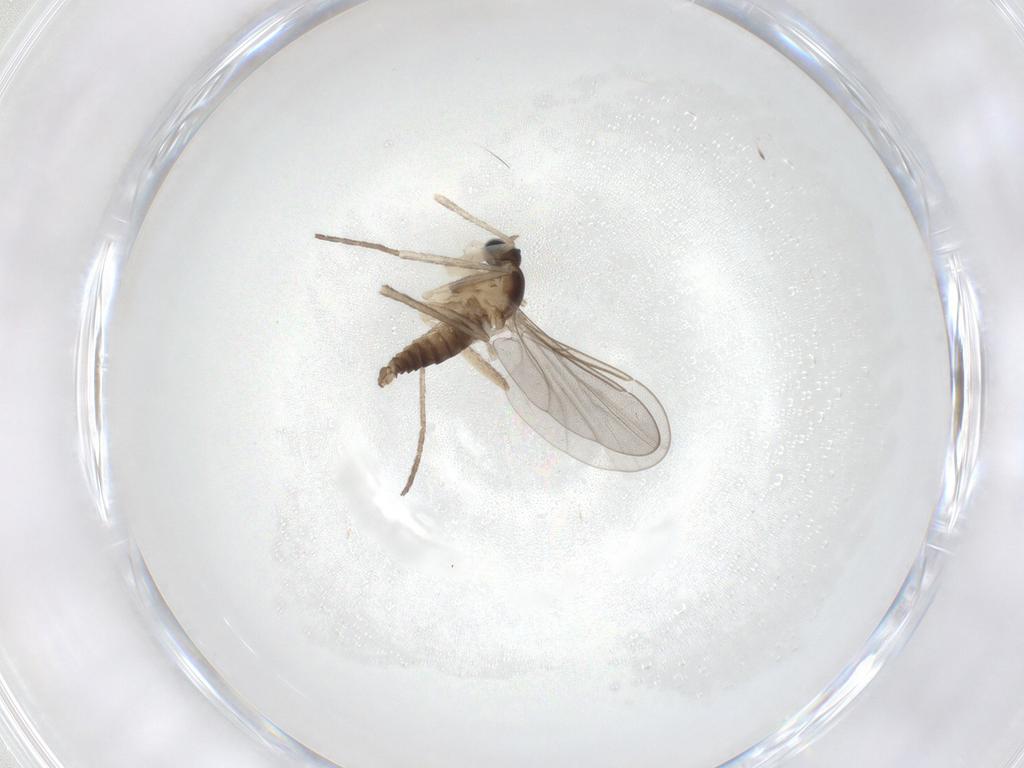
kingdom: Animalia
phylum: Arthropoda
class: Insecta
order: Diptera
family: Cecidomyiidae
